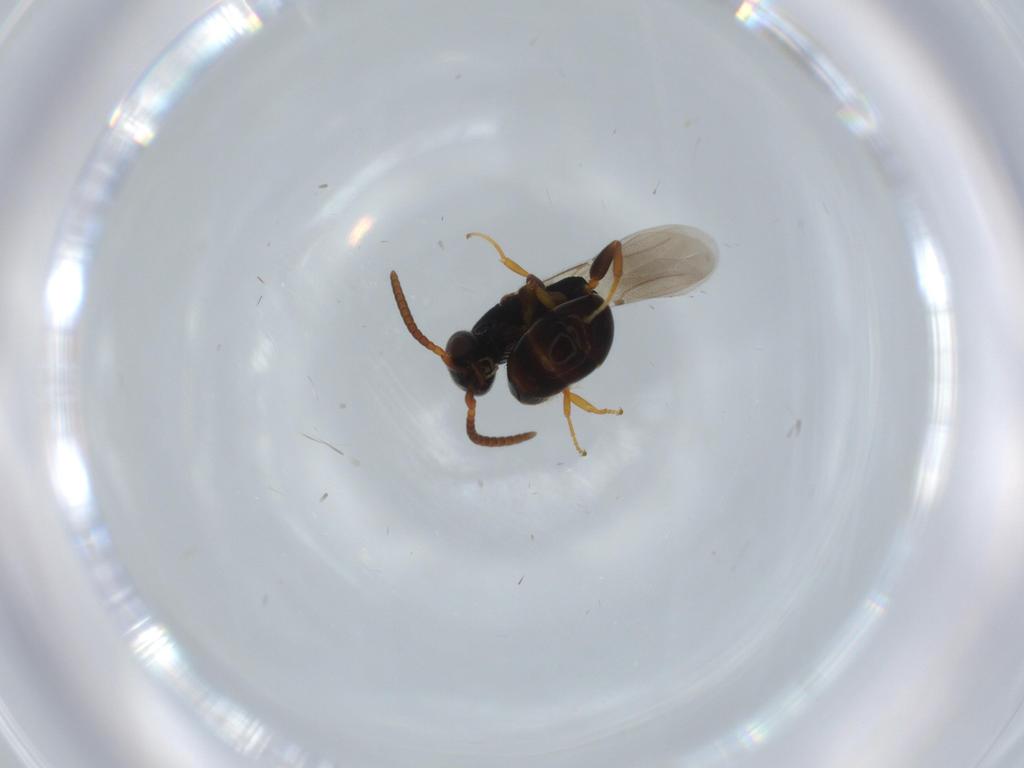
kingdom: Animalia
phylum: Arthropoda
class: Insecta
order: Hymenoptera
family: Bethylidae
